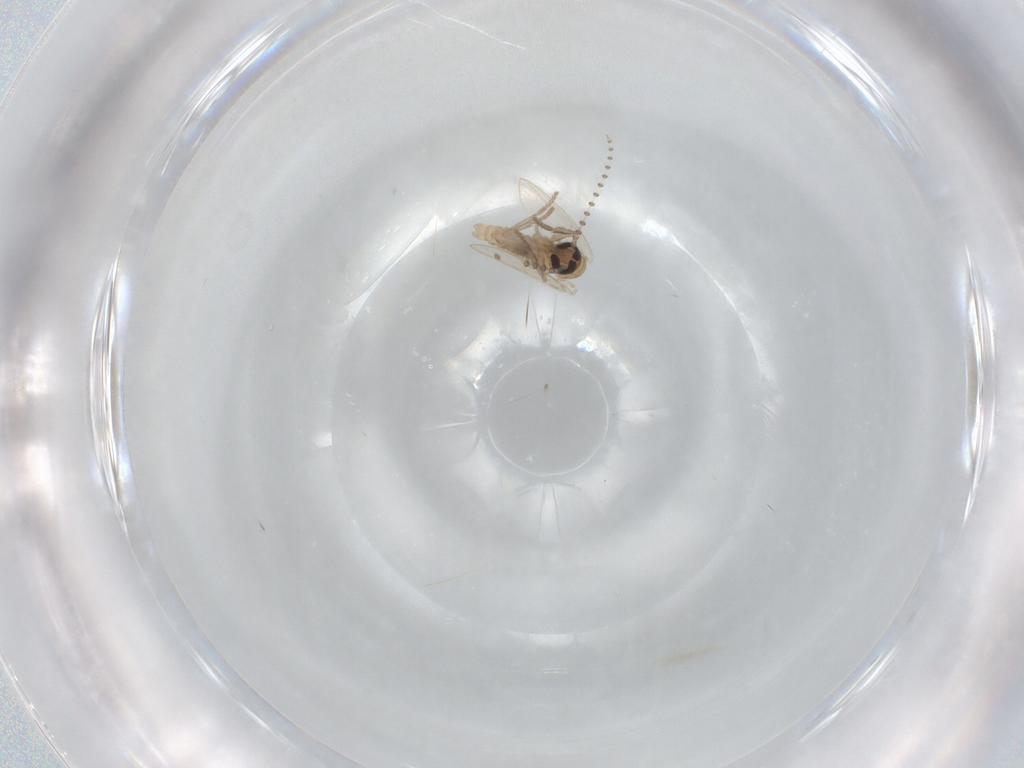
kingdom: Animalia
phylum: Arthropoda
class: Insecta
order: Diptera
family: Psychodidae
